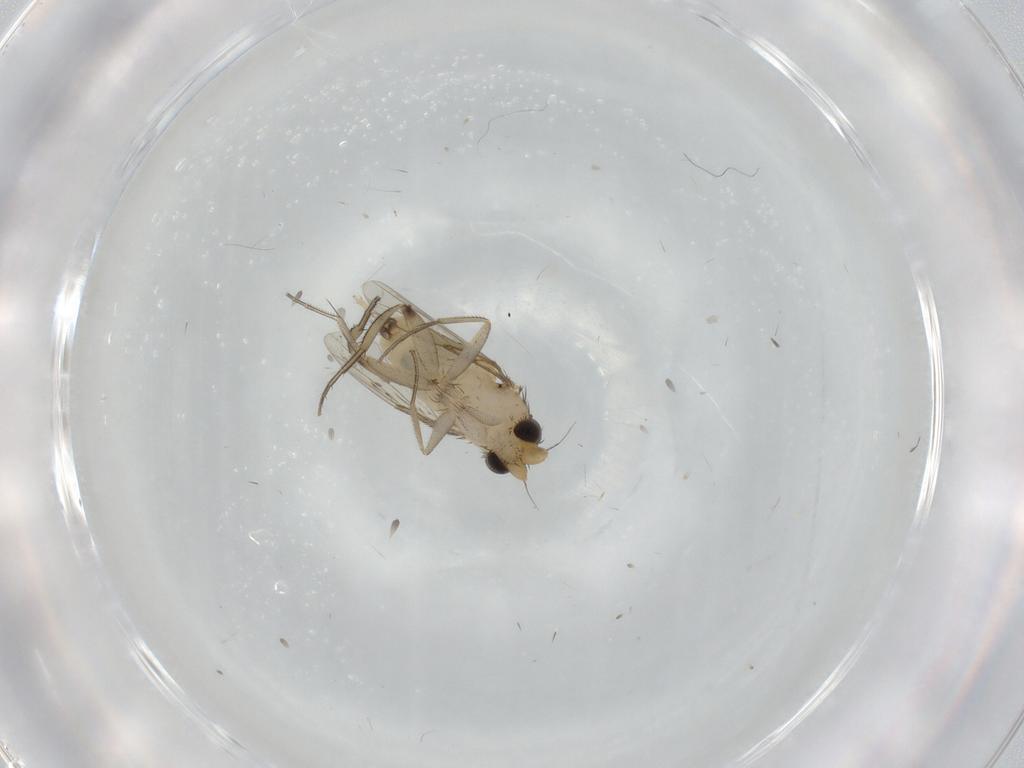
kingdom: Animalia
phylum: Arthropoda
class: Insecta
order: Diptera
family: Phoridae
